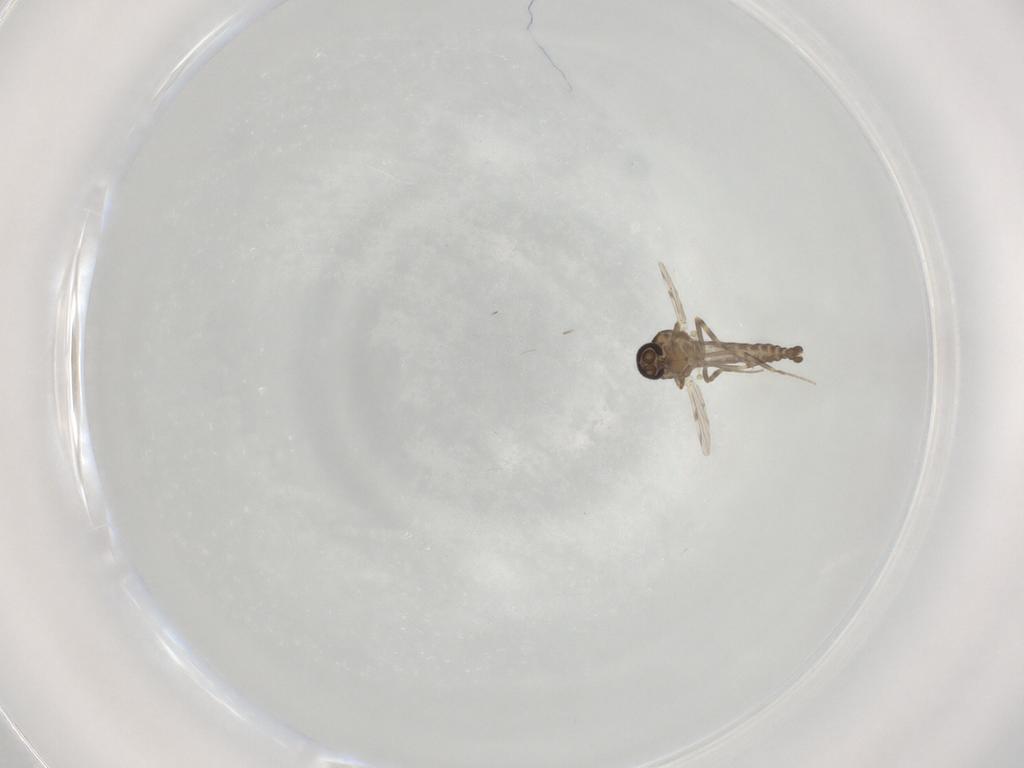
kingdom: Animalia
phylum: Arthropoda
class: Insecta
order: Diptera
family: Ceratopogonidae
